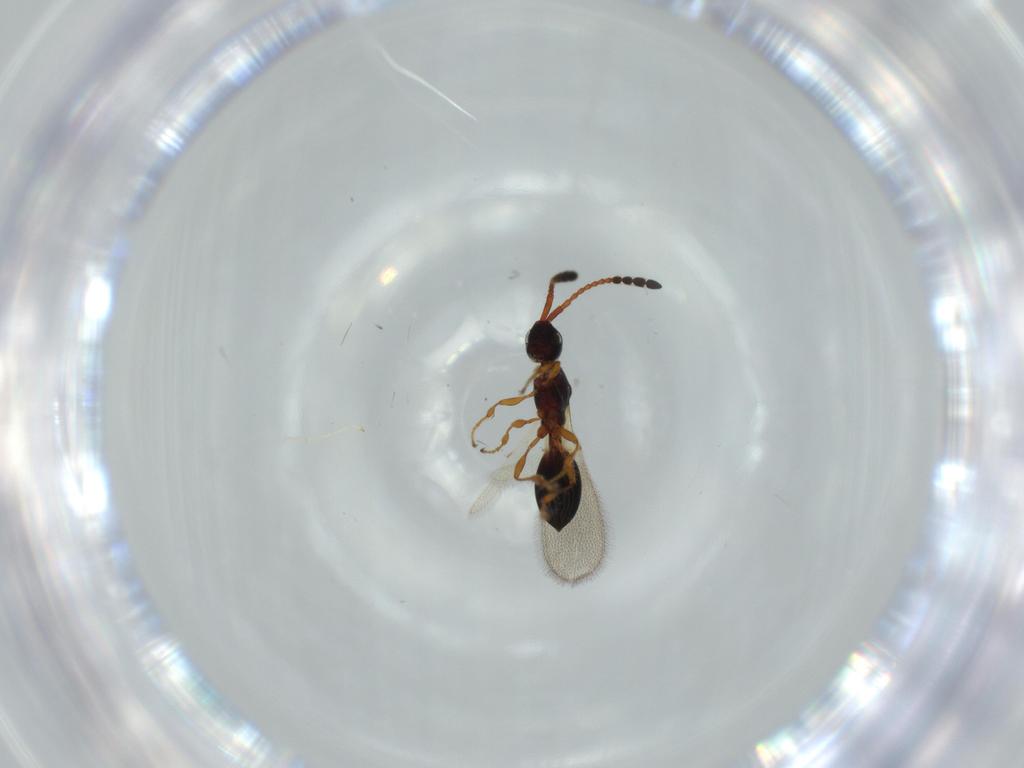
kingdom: Animalia
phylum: Arthropoda
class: Insecta
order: Hymenoptera
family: Diapriidae
